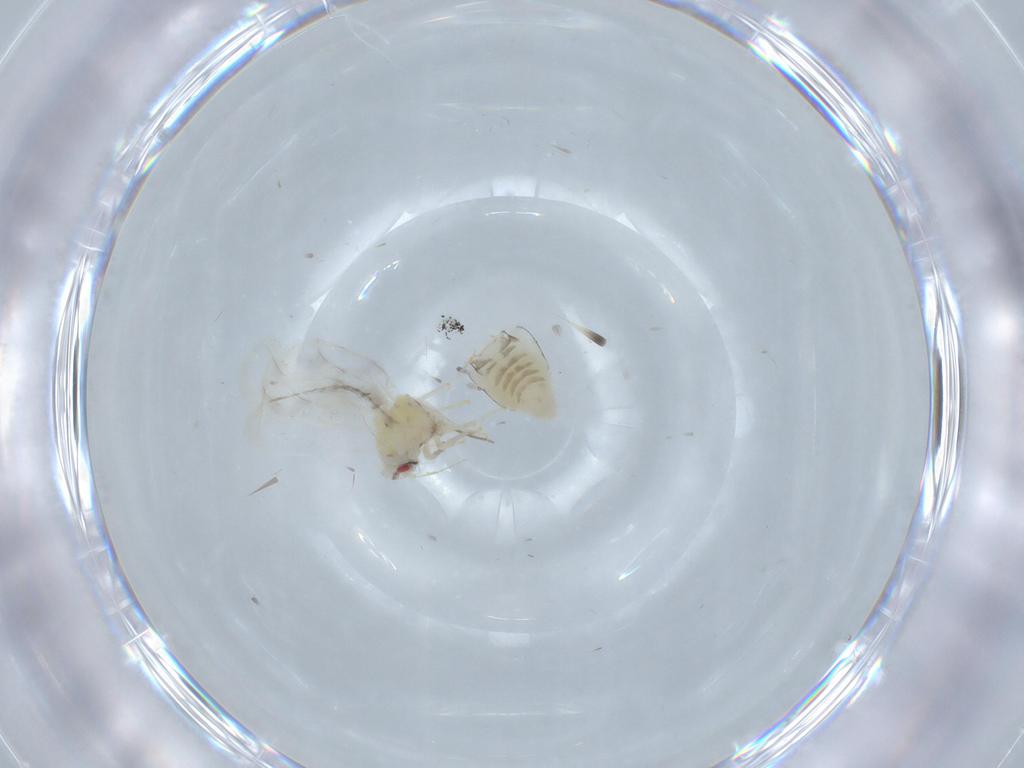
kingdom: Animalia
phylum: Arthropoda
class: Insecta
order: Hemiptera
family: Aleyrodidae
